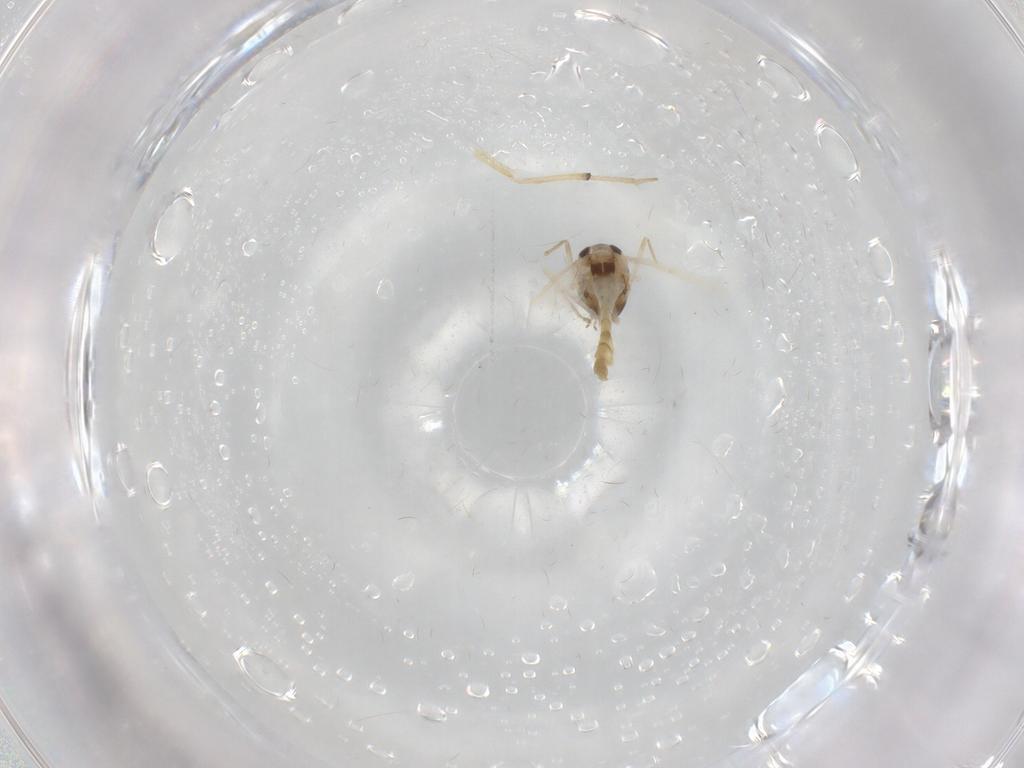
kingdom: Animalia
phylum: Arthropoda
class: Insecta
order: Diptera
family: Chironomidae
